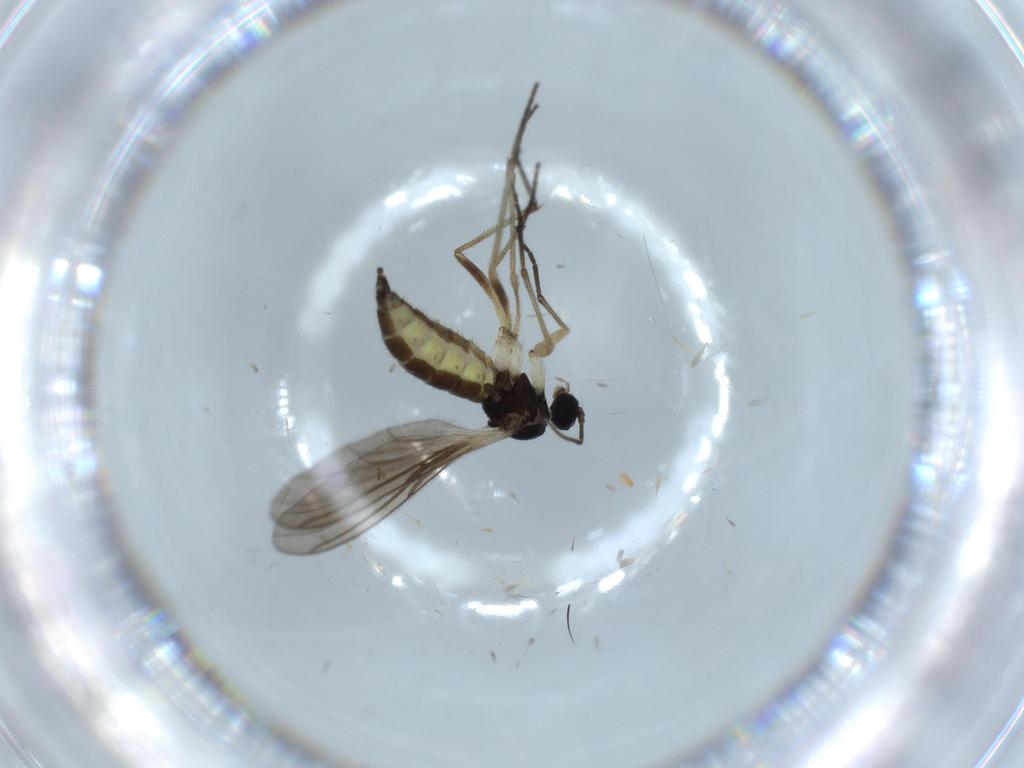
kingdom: Animalia
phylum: Arthropoda
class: Insecta
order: Diptera
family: Sciaridae
